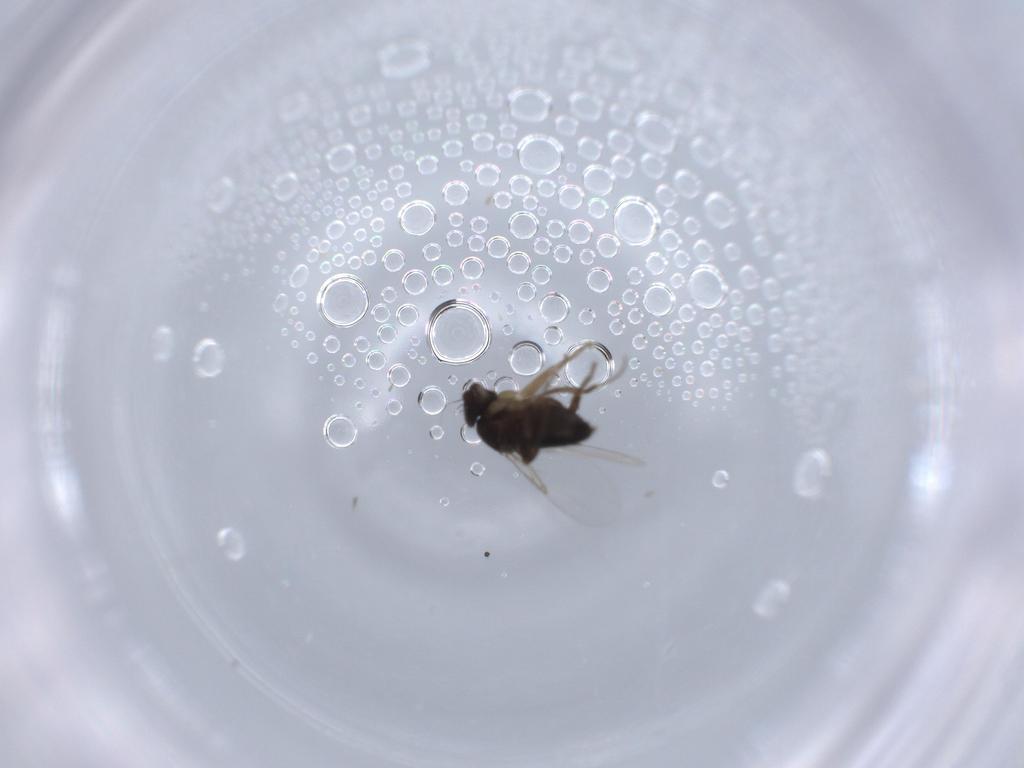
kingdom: Animalia
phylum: Arthropoda
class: Insecta
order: Diptera
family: Phoridae
